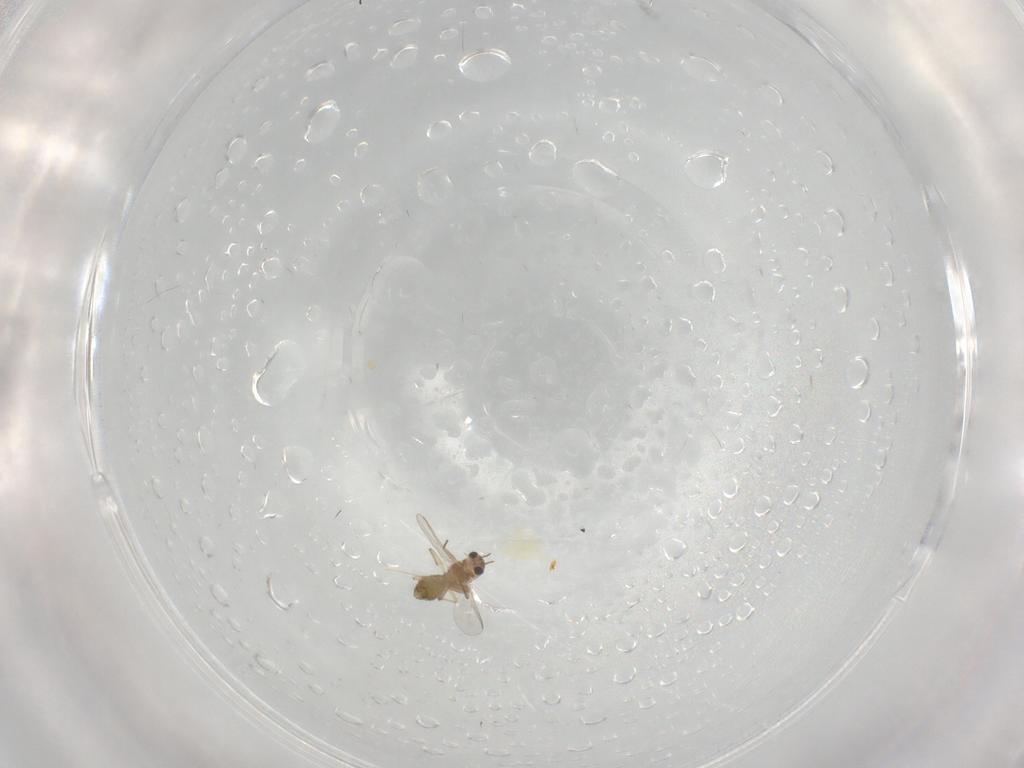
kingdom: Animalia
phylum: Arthropoda
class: Insecta
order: Diptera
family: Chironomidae
